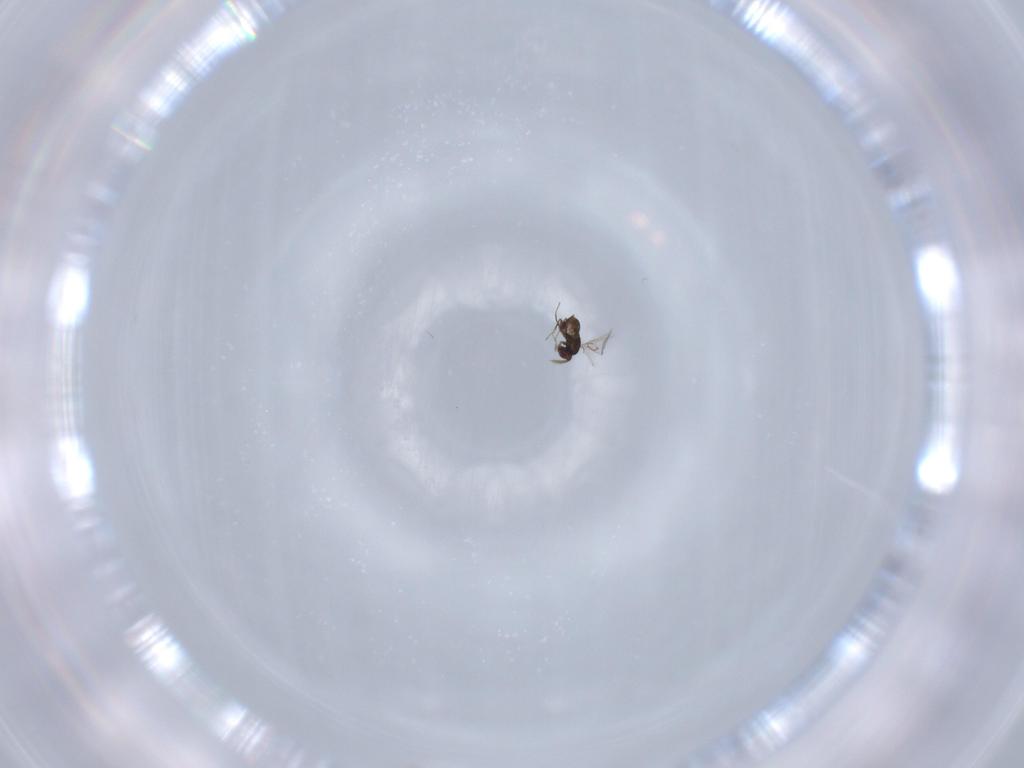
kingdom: Animalia
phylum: Arthropoda
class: Insecta
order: Hymenoptera
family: Trichogrammatidae
